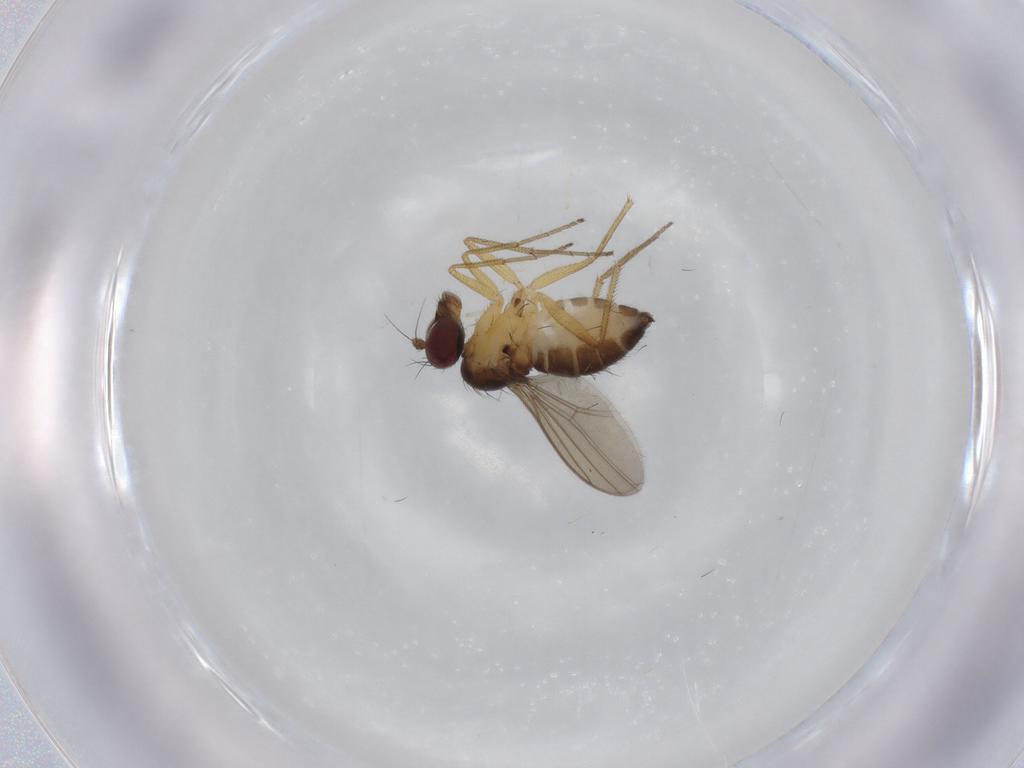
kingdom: Animalia
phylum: Arthropoda
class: Insecta
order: Diptera
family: Dolichopodidae
